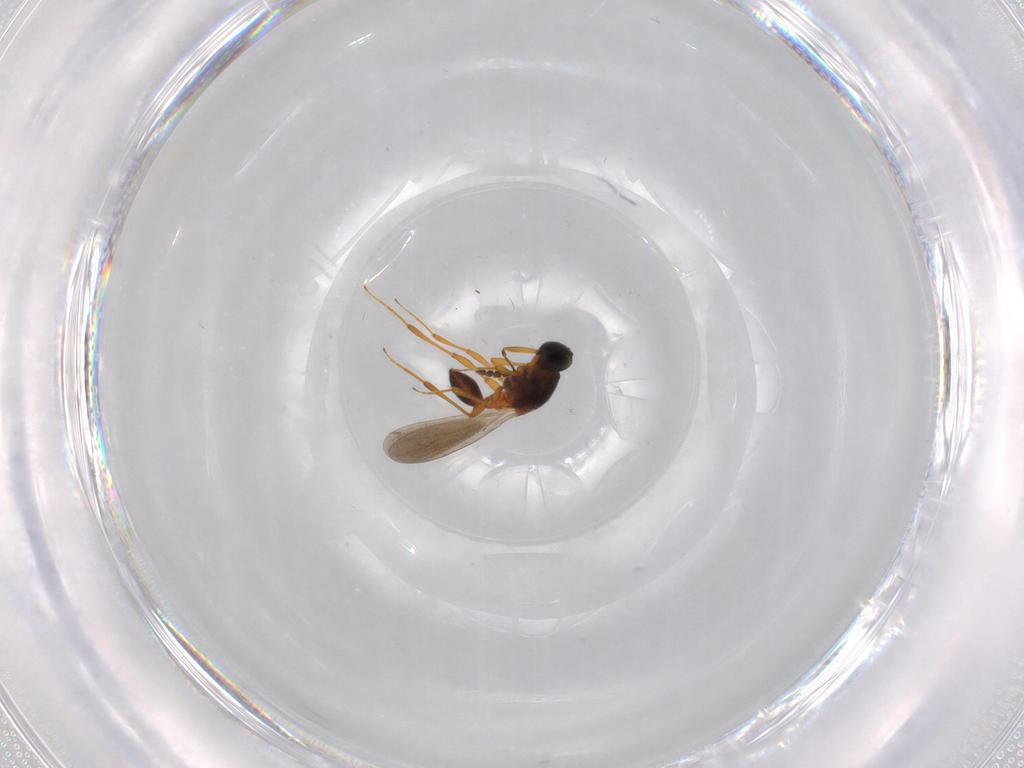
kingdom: Animalia
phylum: Arthropoda
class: Insecta
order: Hymenoptera
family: Platygastridae
